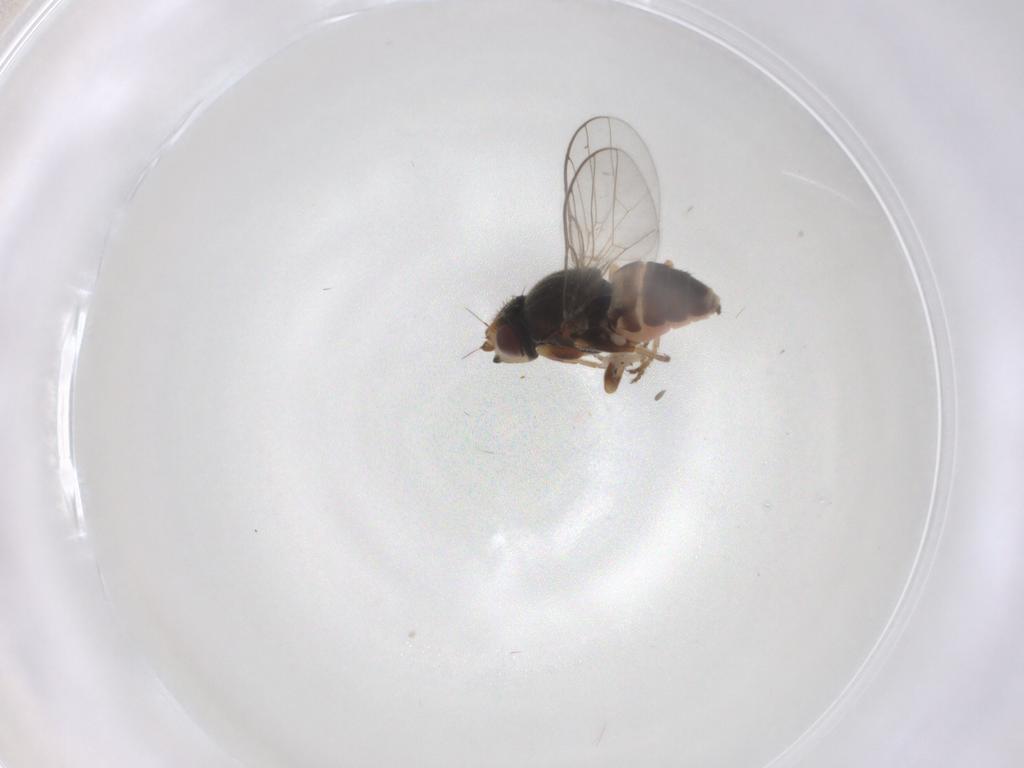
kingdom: Animalia
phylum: Arthropoda
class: Insecta
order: Diptera
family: Chloropidae
